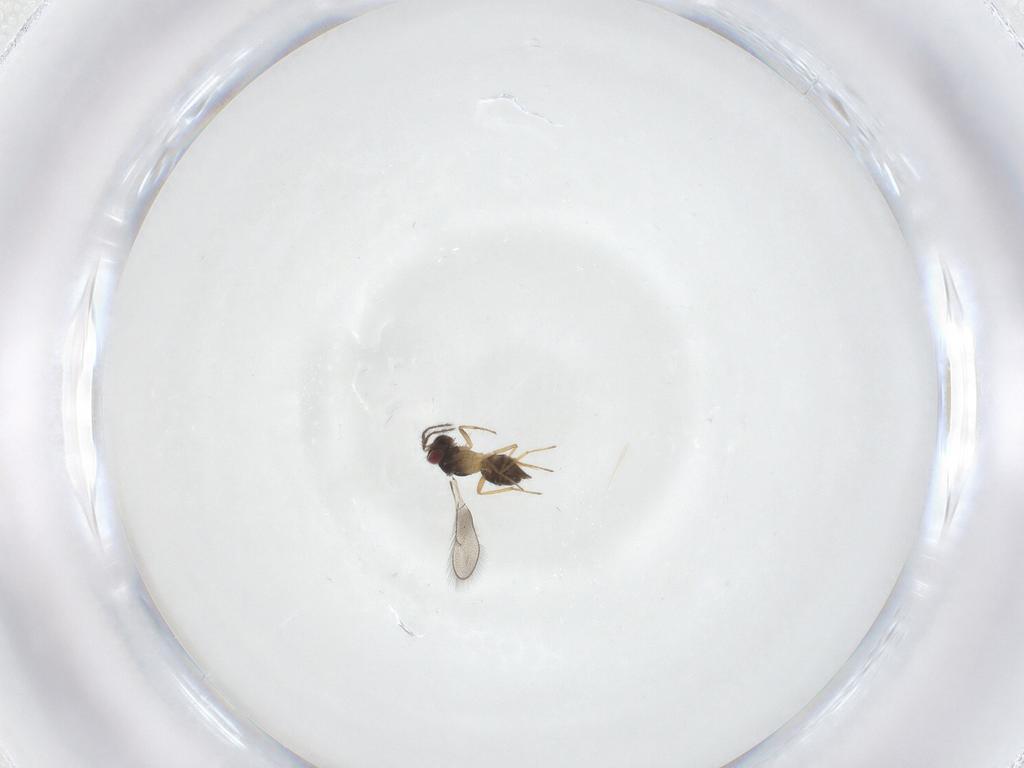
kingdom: Animalia
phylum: Arthropoda
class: Insecta
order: Hymenoptera
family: Eulophidae
